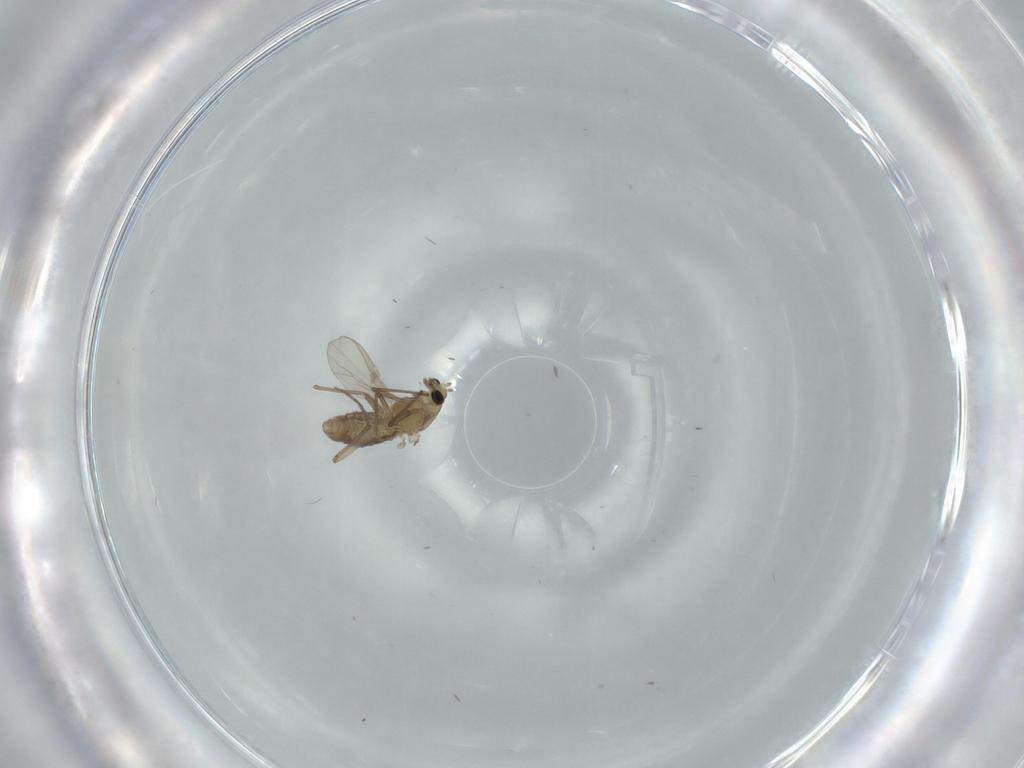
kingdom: Animalia
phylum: Arthropoda
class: Insecta
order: Diptera
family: Chironomidae
